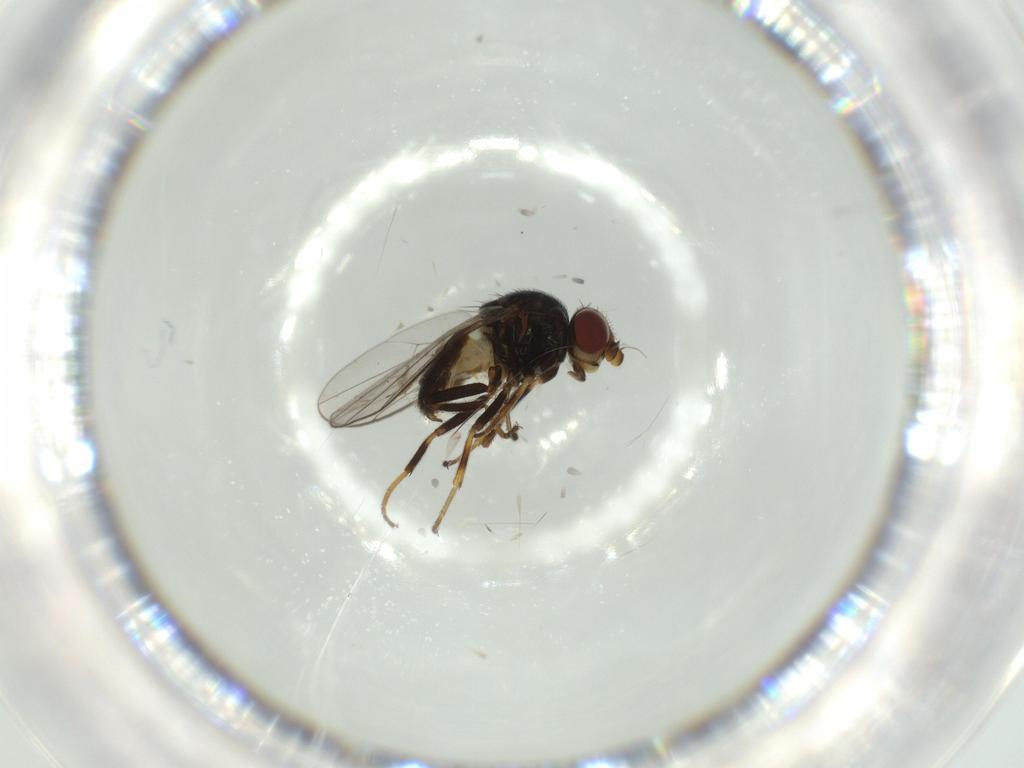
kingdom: Animalia
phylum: Arthropoda
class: Insecta
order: Diptera
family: Chloropidae
